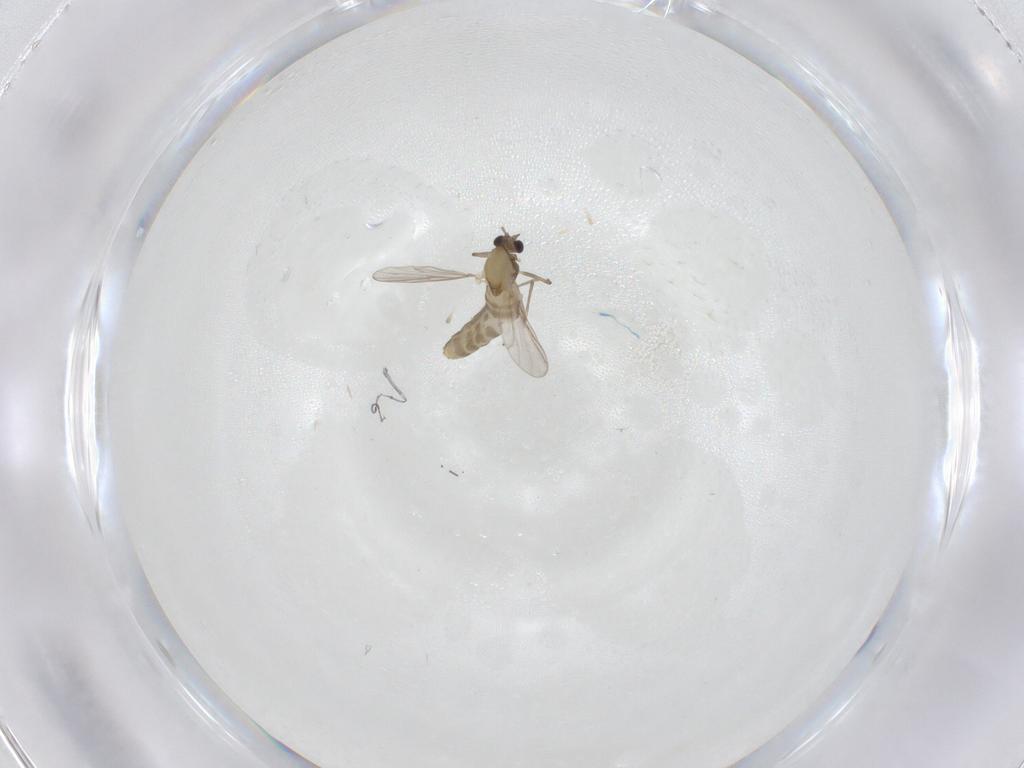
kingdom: Animalia
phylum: Arthropoda
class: Insecta
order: Diptera
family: Chironomidae
